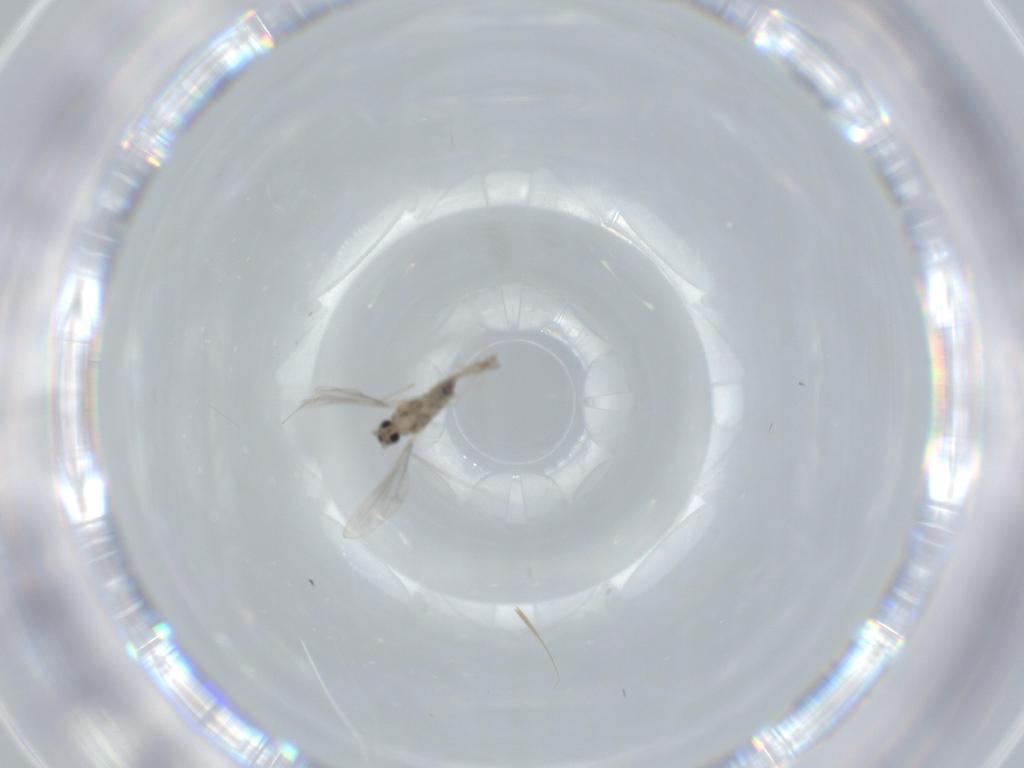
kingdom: Animalia
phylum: Arthropoda
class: Insecta
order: Diptera
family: Cecidomyiidae
